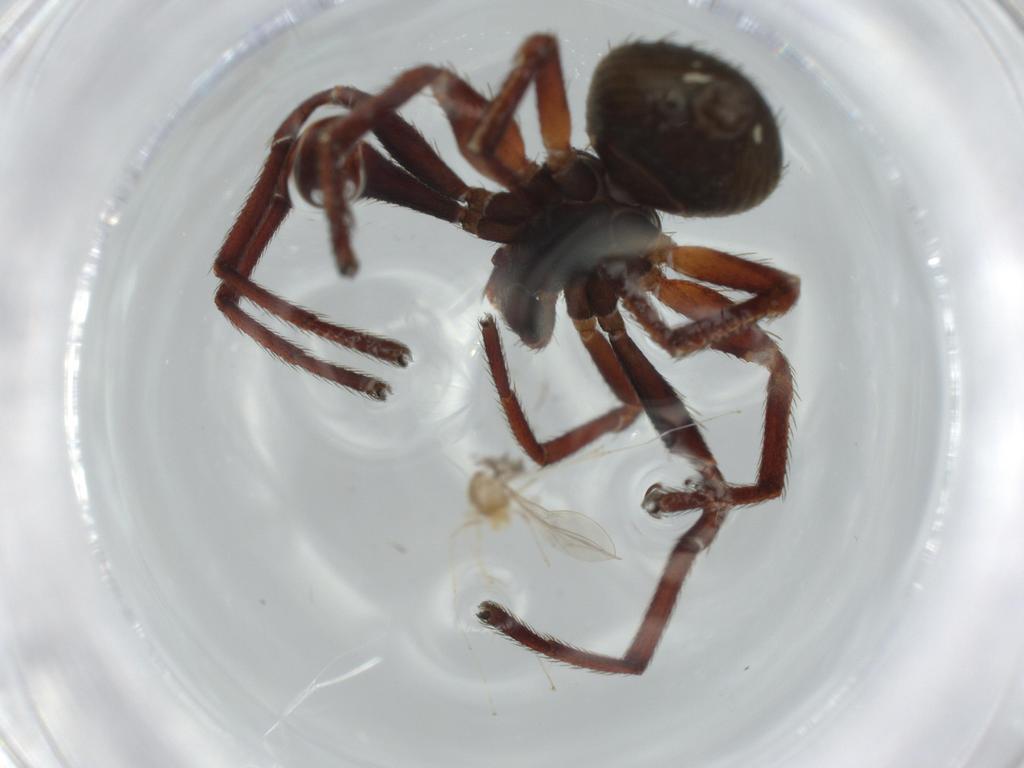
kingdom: Animalia
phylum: Arthropoda
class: Arachnida
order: Araneae
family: Thomisidae
